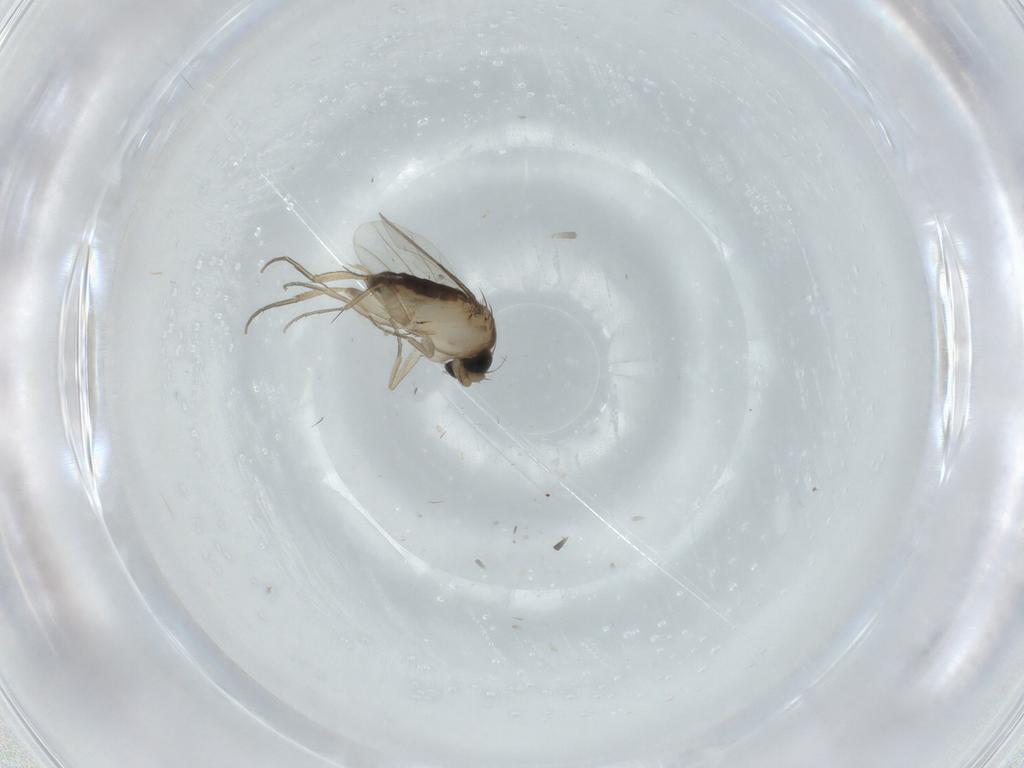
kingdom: Animalia
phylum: Arthropoda
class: Insecta
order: Diptera
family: Phoridae
